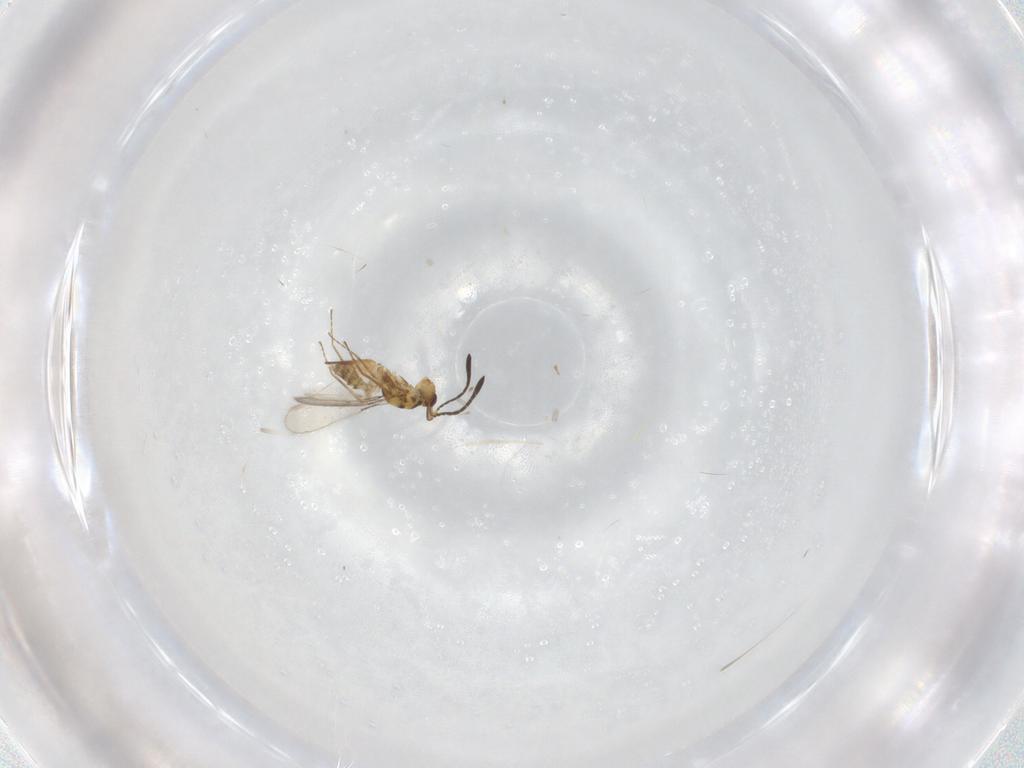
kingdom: Animalia
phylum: Arthropoda
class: Insecta
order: Hymenoptera
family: Mymaridae
